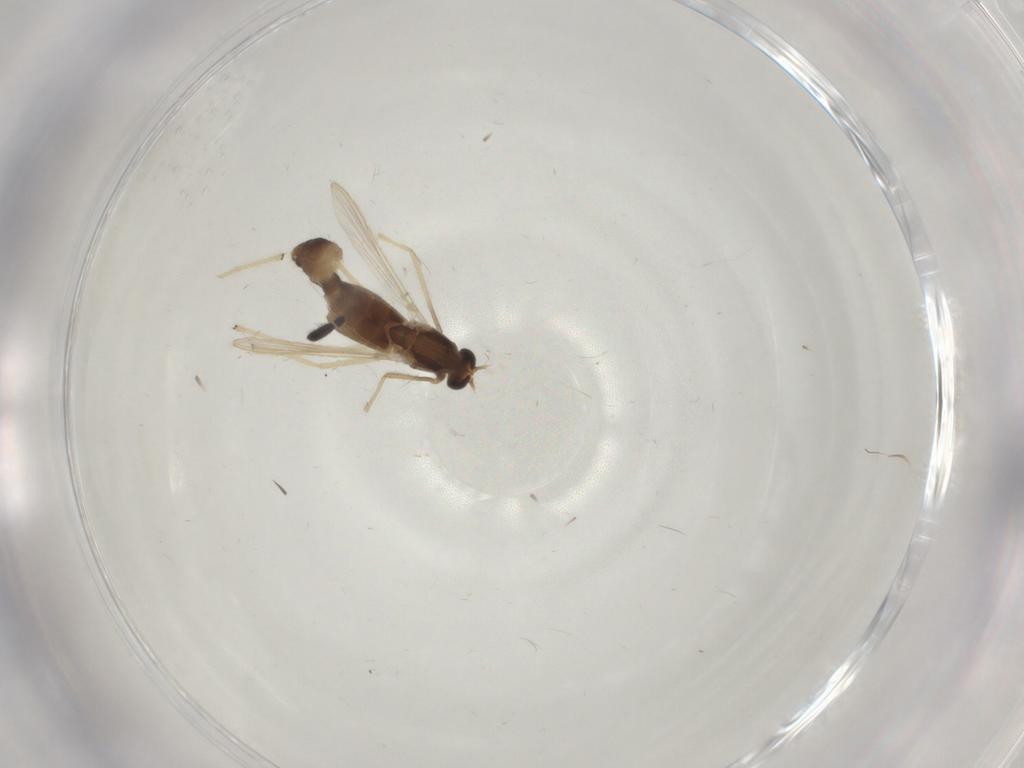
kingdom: Animalia
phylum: Arthropoda
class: Insecta
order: Diptera
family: Chironomidae
